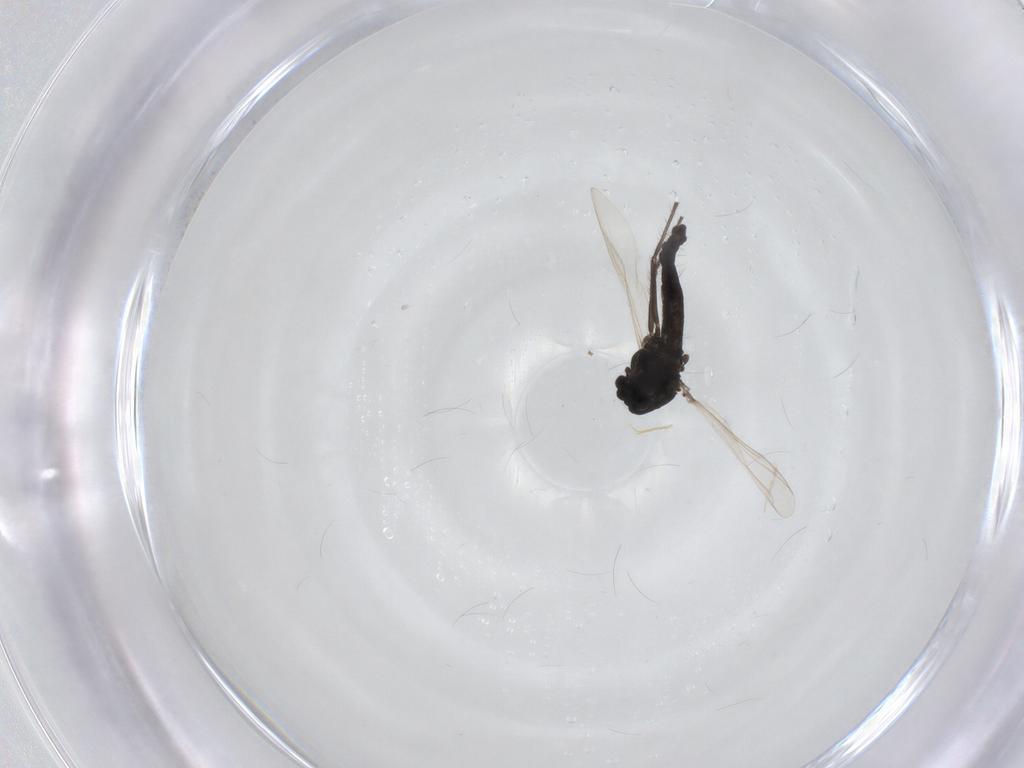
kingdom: Animalia
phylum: Arthropoda
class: Insecta
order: Diptera
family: Chironomidae
